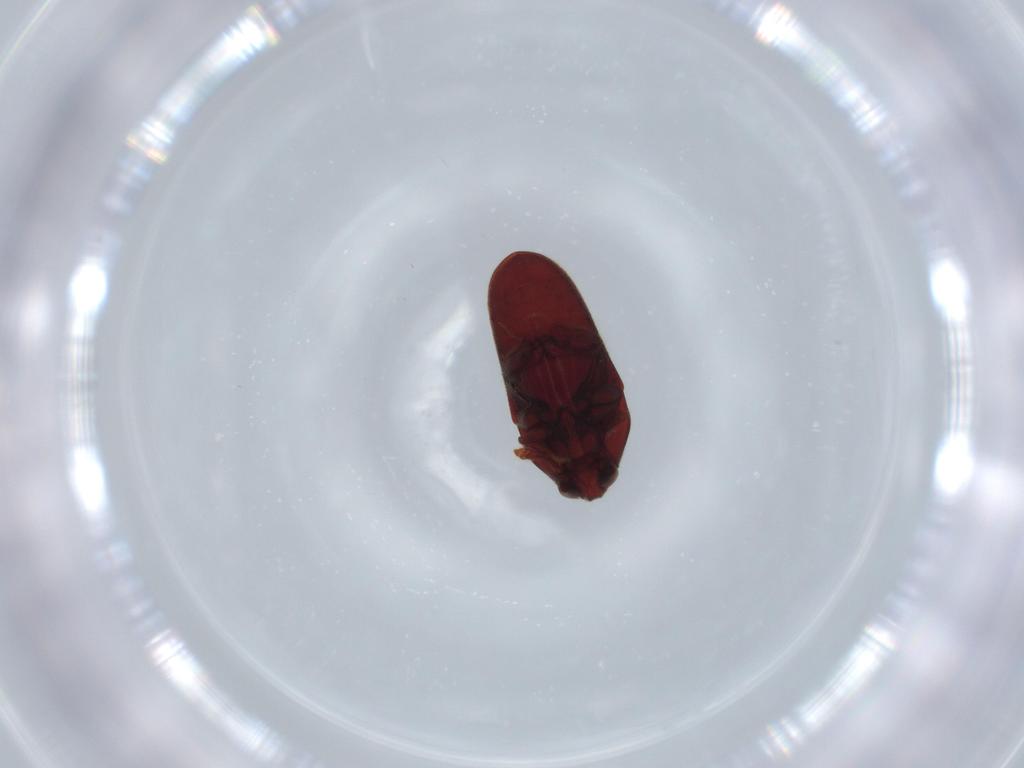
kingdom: Animalia
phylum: Arthropoda
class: Insecta
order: Coleoptera
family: Throscidae
